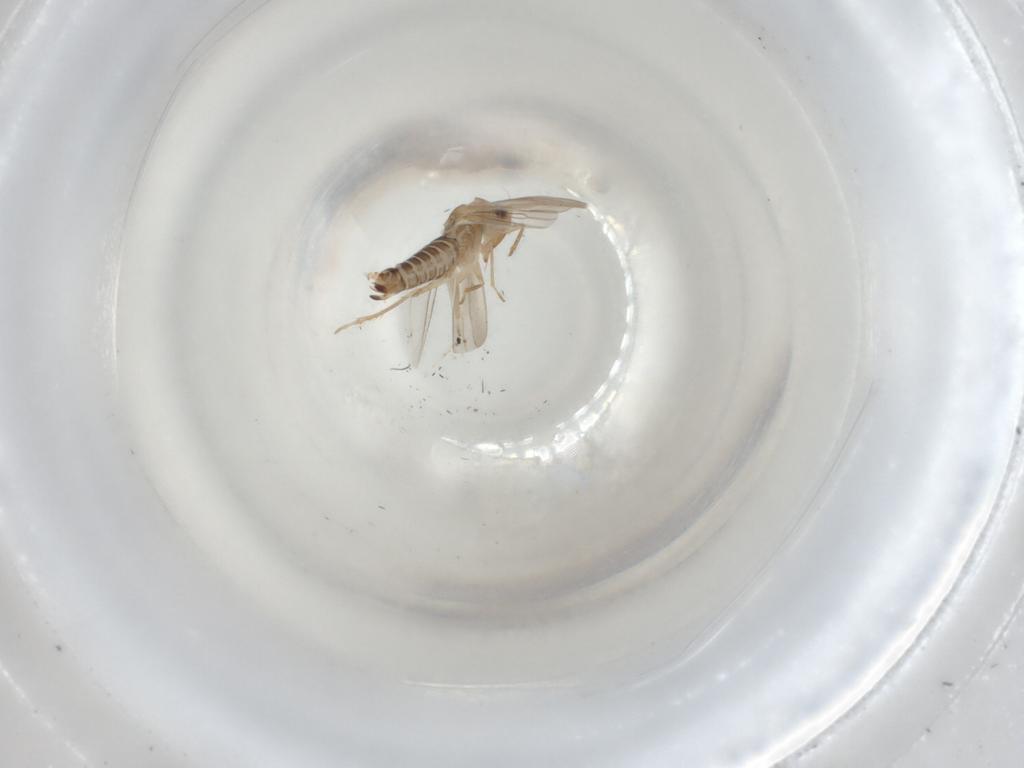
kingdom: Animalia
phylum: Arthropoda
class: Insecta
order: Hemiptera
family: Cicadellidae
